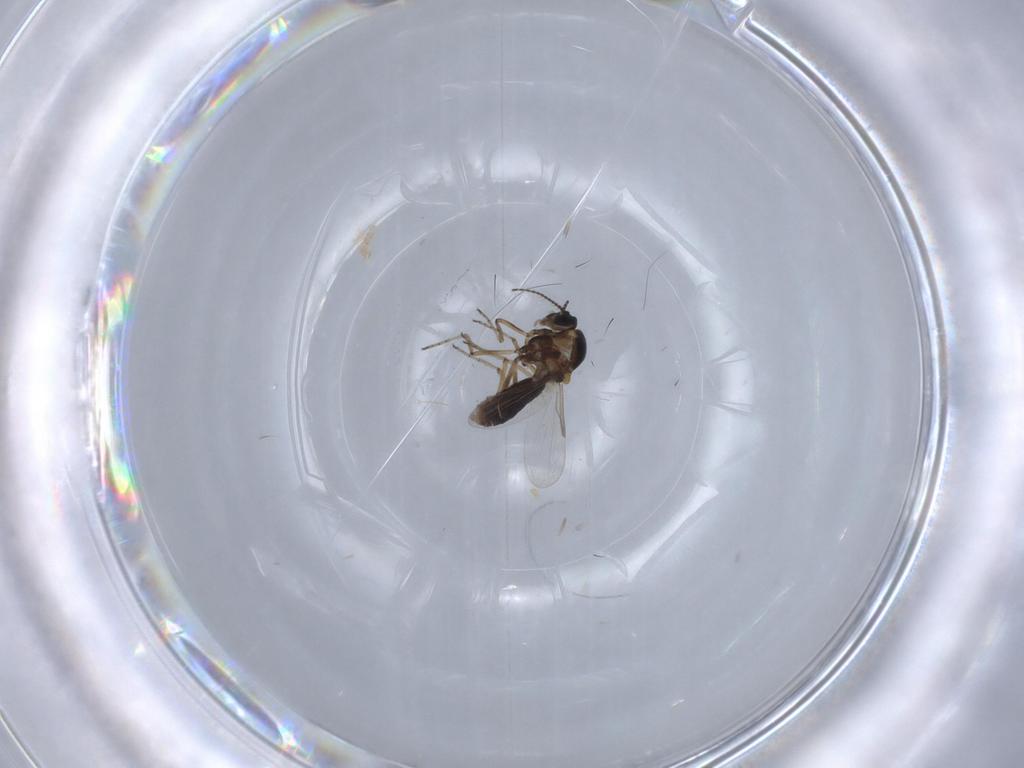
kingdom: Animalia
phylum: Arthropoda
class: Insecta
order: Diptera
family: Ceratopogonidae
